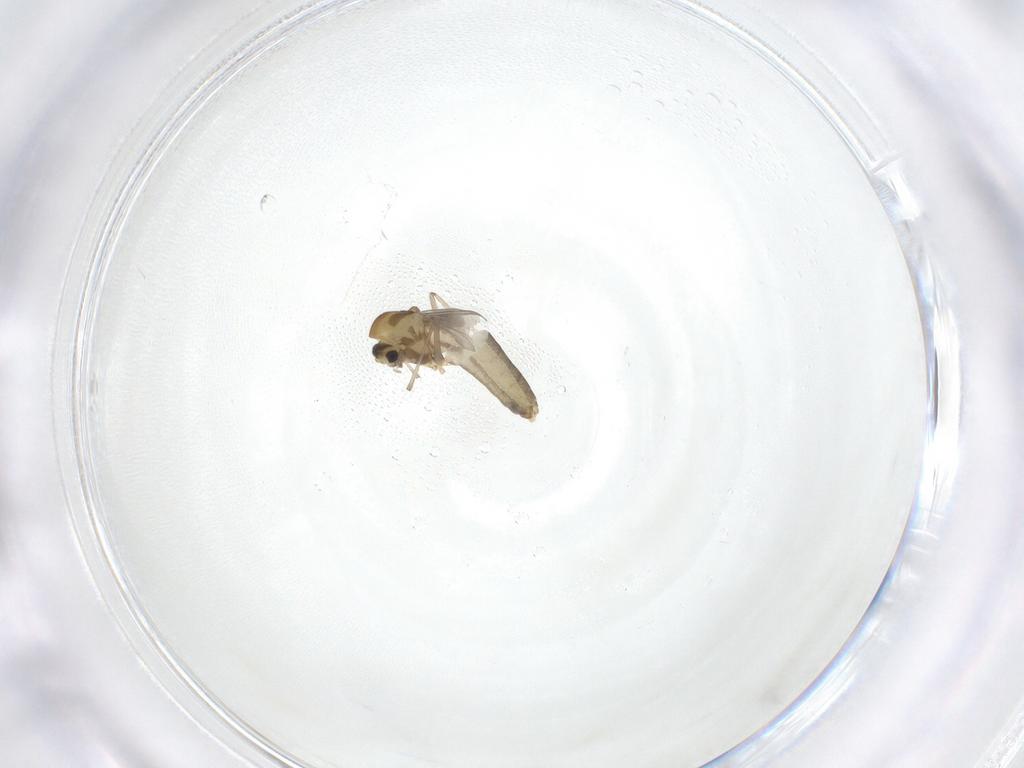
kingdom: Animalia
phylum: Arthropoda
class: Insecta
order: Diptera
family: Chironomidae
